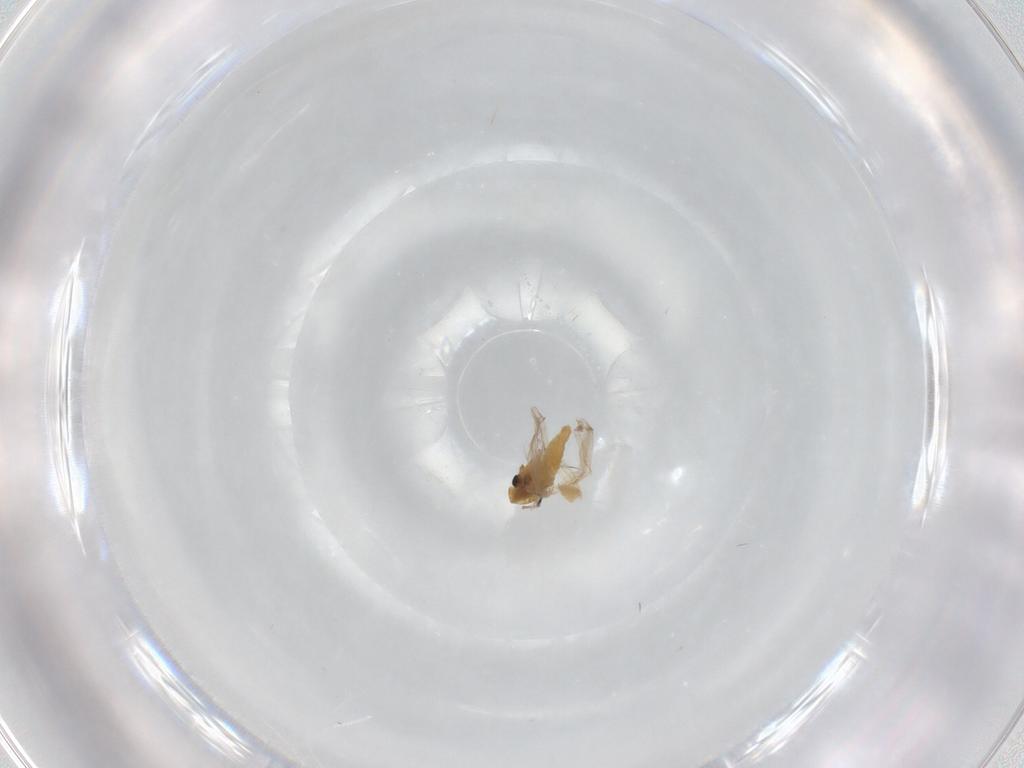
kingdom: Animalia
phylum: Arthropoda
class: Insecta
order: Diptera
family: Glossinidae
